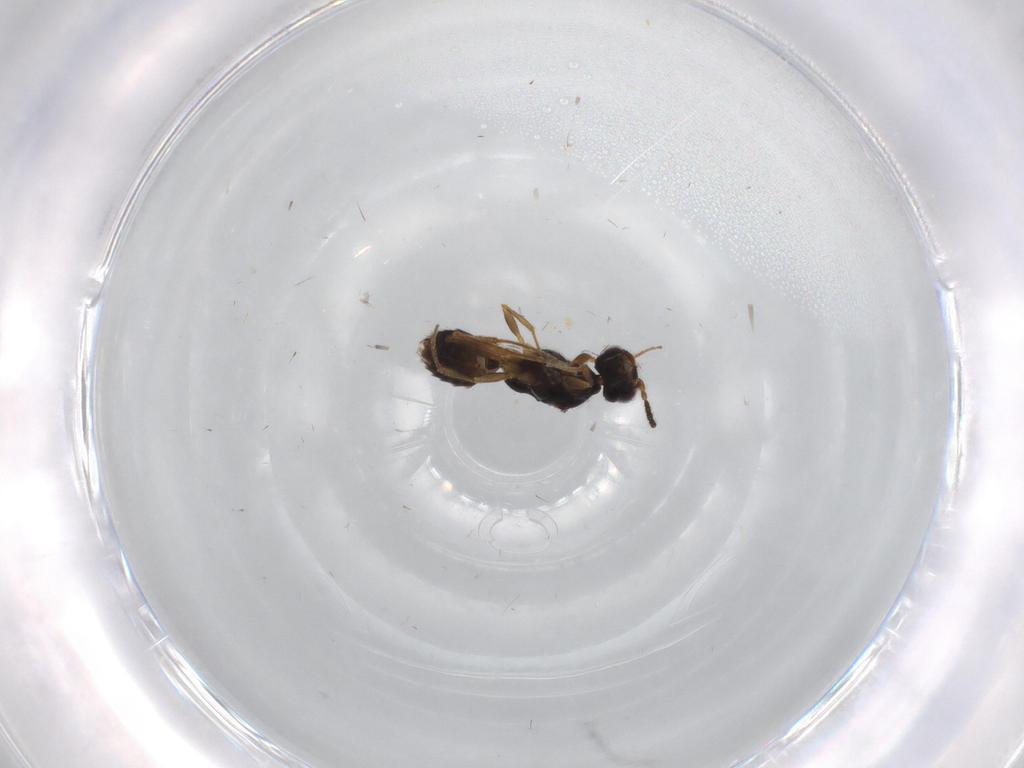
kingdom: Animalia
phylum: Arthropoda
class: Insecta
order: Hymenoptera
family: Bethylidae
